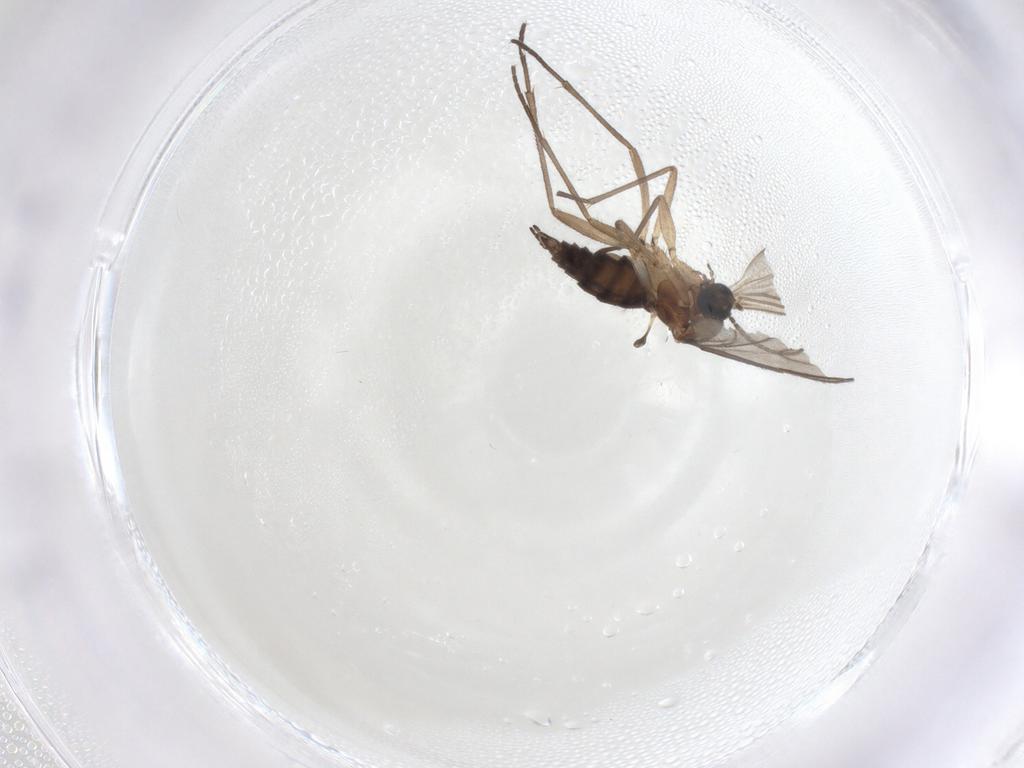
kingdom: Animalia
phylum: Arthropoda
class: Insecta
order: Diptera
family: Sciaridae
